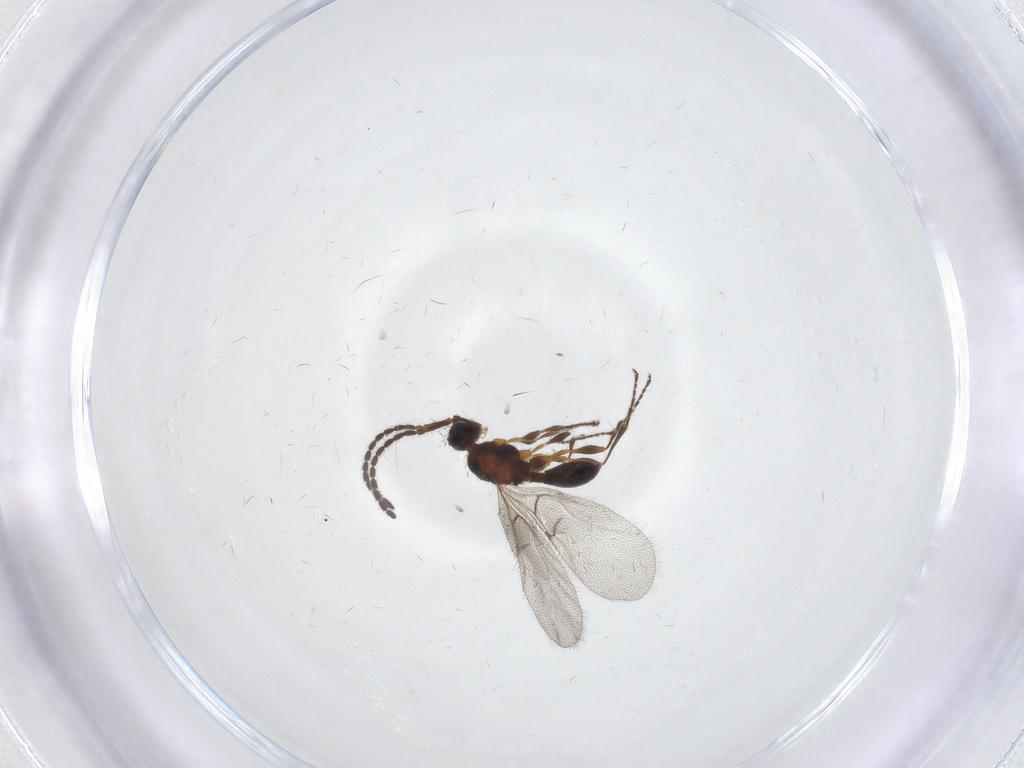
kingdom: Animalia
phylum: Arthropoda
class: Insecta
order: Hymenoptera
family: Diapriidae
